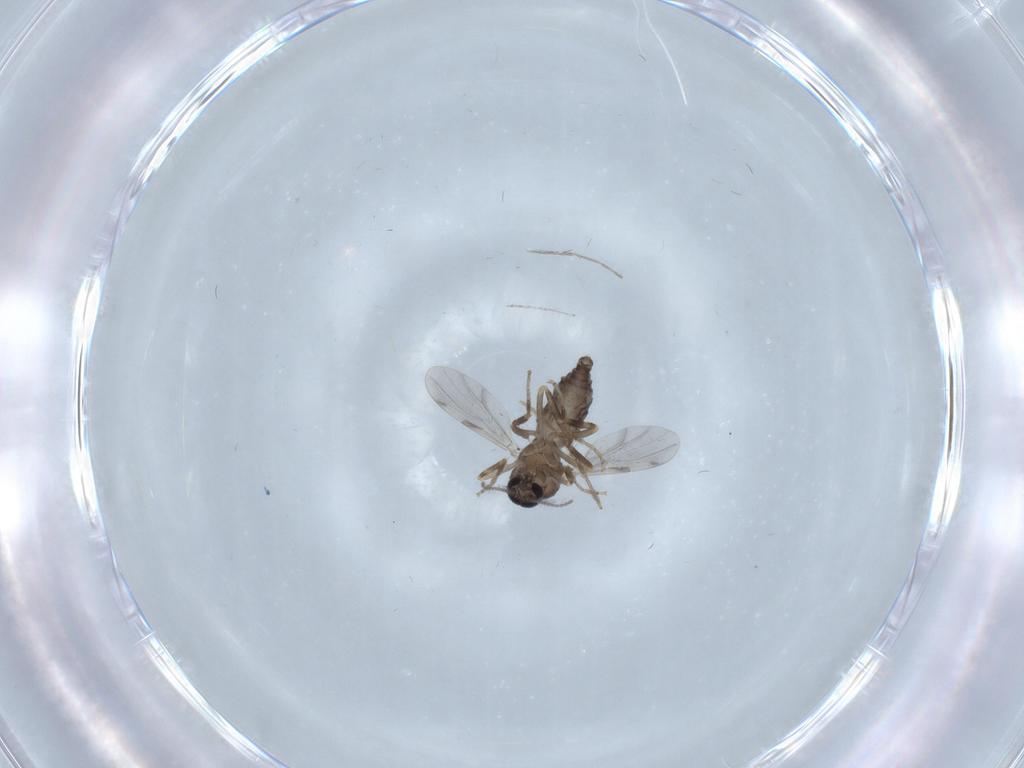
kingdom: Animalia
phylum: Arthropoda
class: Insecta
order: Diptera
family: Ceratopogonidae
